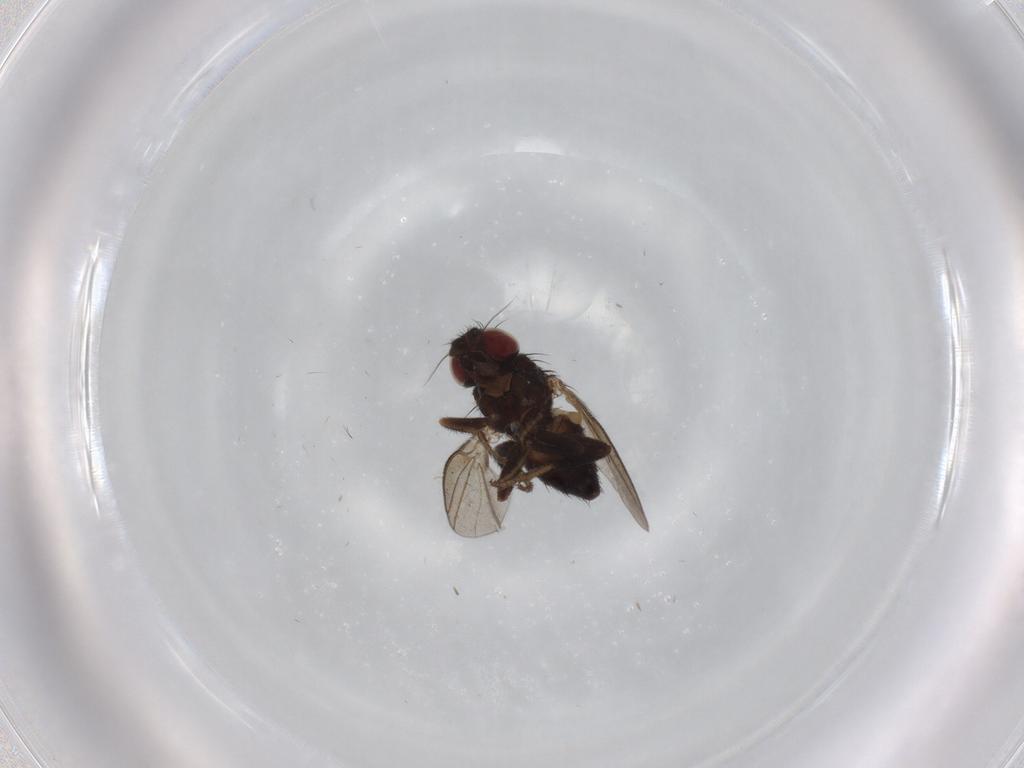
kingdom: Animalia
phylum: Arthropoda
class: Insecta
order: Diptera
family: Milichiidae
